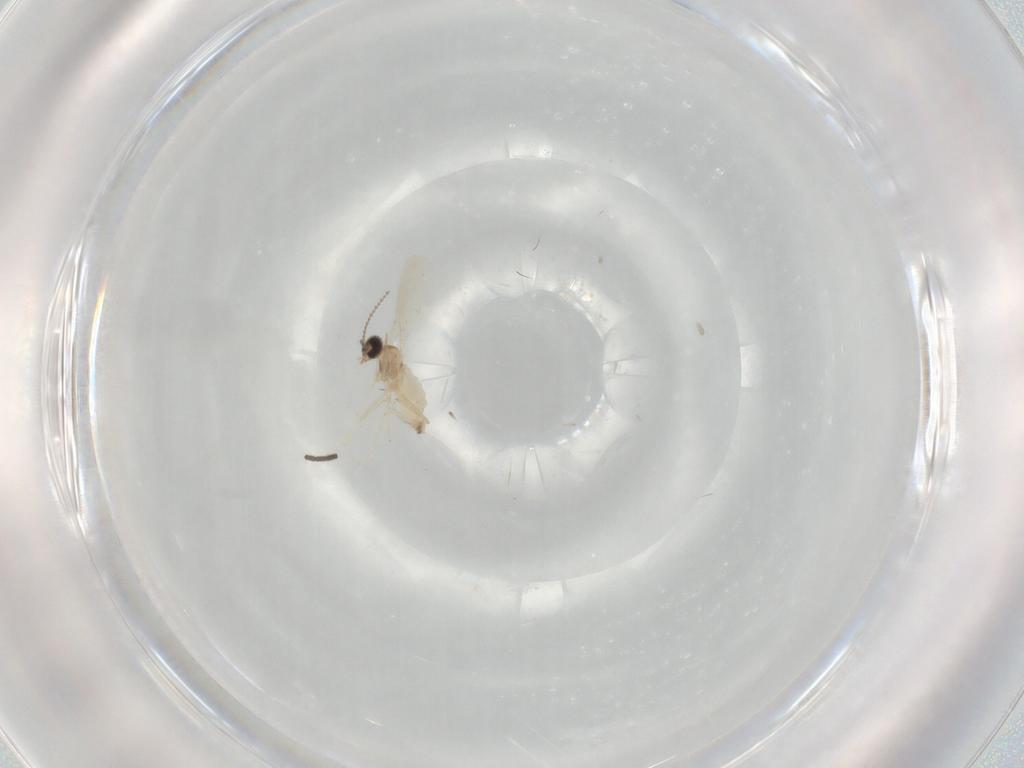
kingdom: Animalia
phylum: Arthropoda
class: Insecta
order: Diptera
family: Cecidomyiidae
